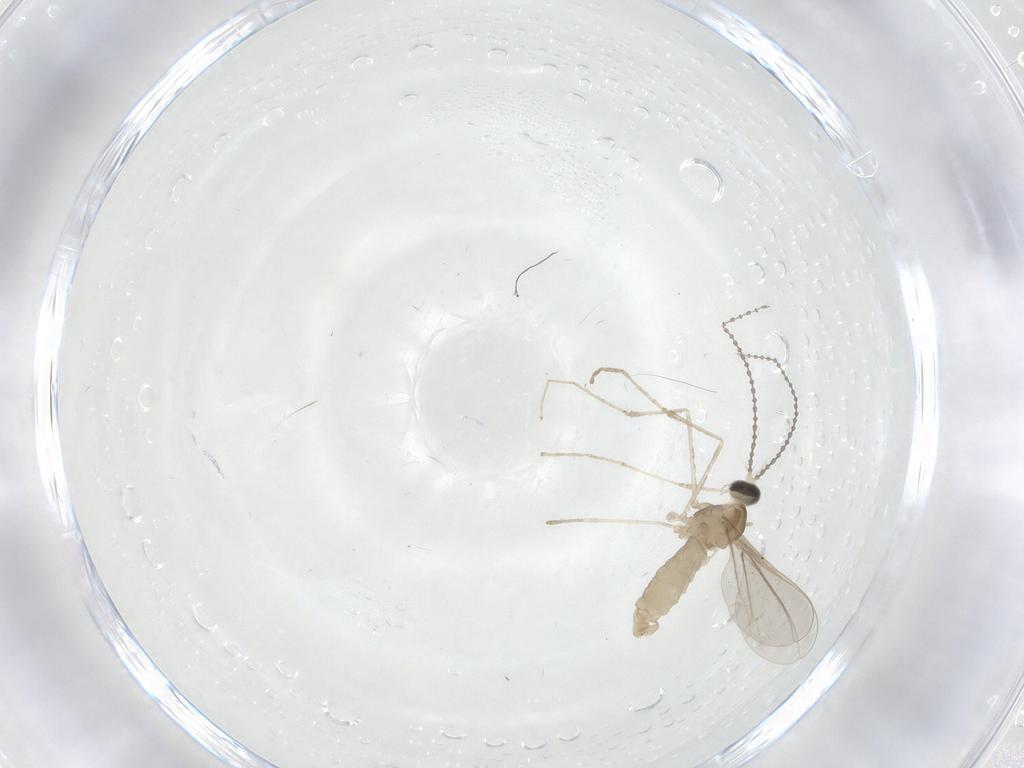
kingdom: Animalia
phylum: Arthropoda
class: Insecta
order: Diptera
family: Cecidomyiidae
